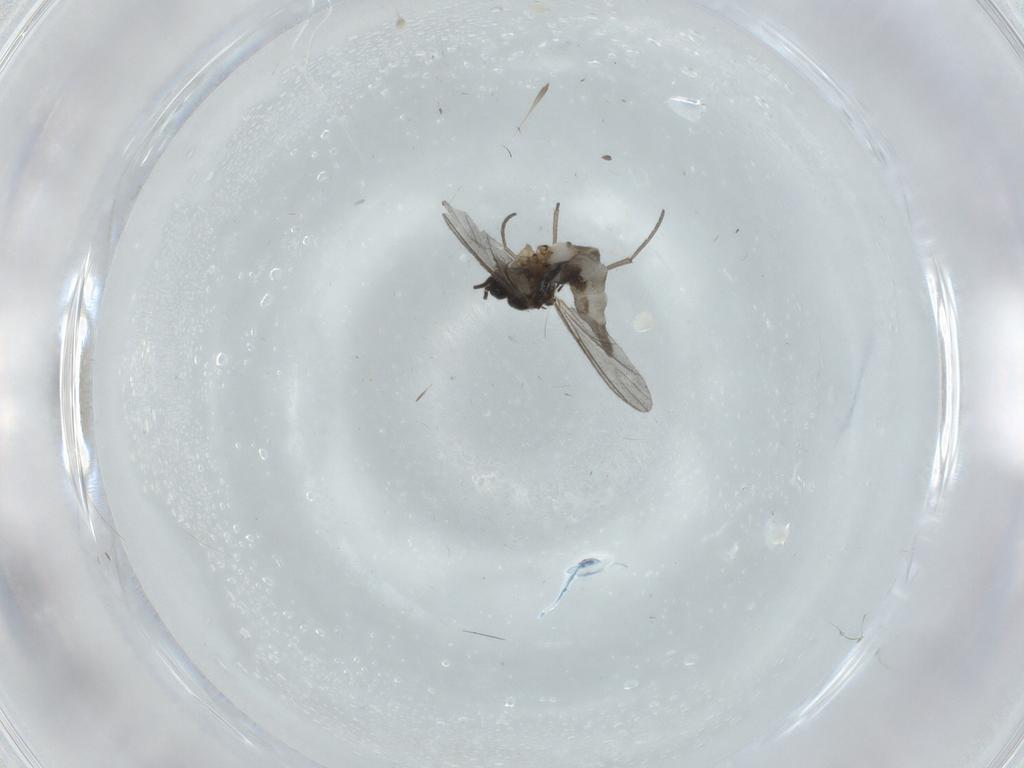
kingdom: Animalia
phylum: Arthropoda
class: Insecta
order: Diptera
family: Sciaridae
